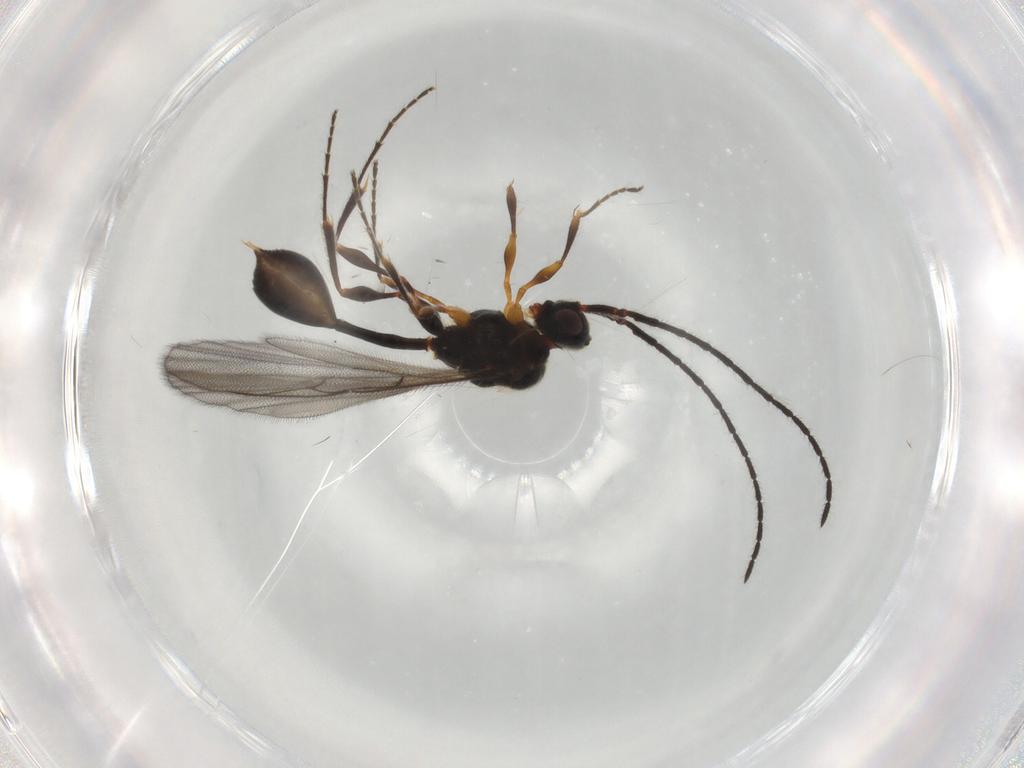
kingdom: Animalia
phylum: Arthropoda
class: Insecta
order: Hymenoptera
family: Diapriidae
